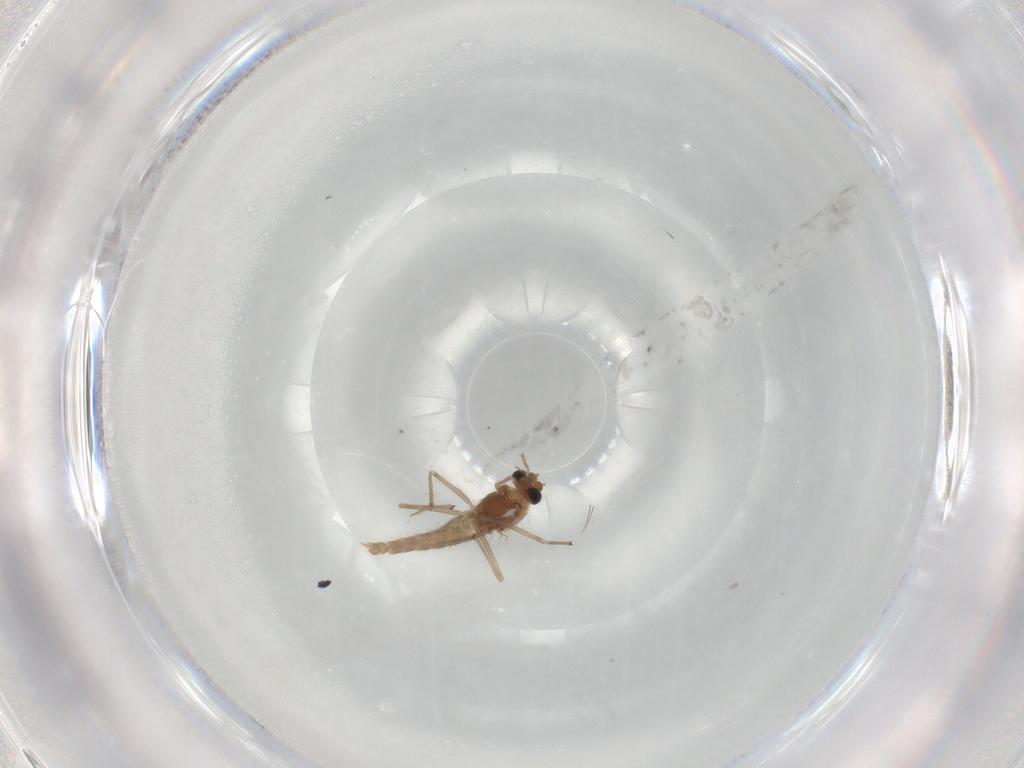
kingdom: Animalia
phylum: Arthropoda
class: Insecta
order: Diptera
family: Chironomidae
